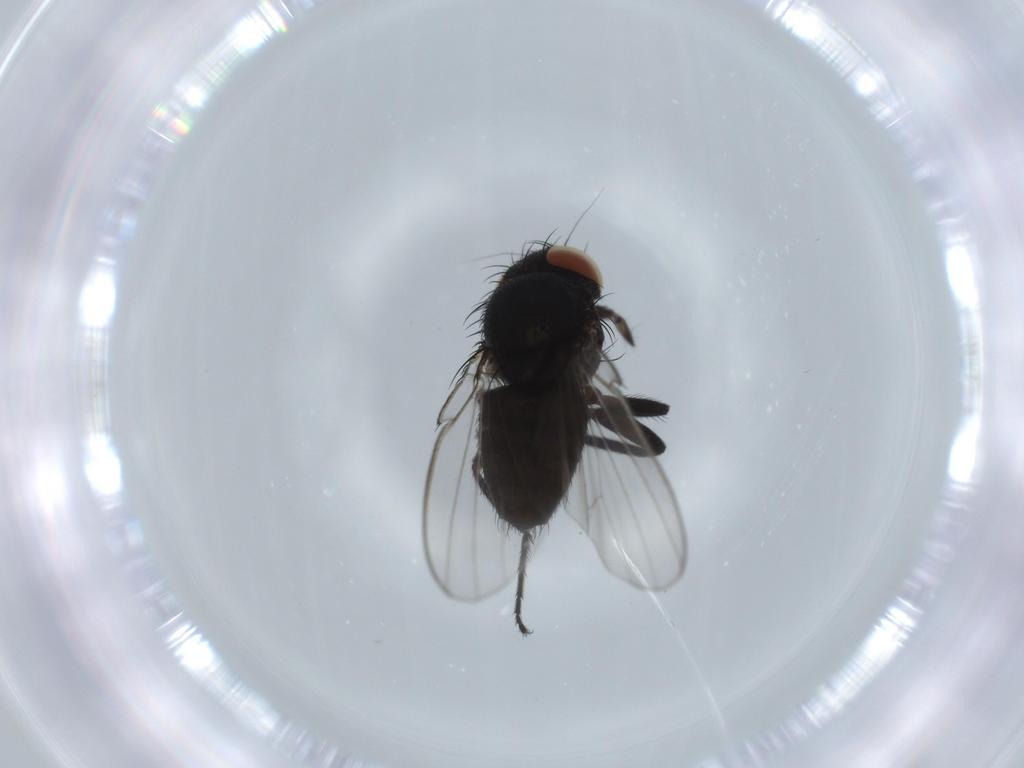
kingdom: Animalia
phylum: Arthropoda
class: Insecta
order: Diptera
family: Milichiidae
